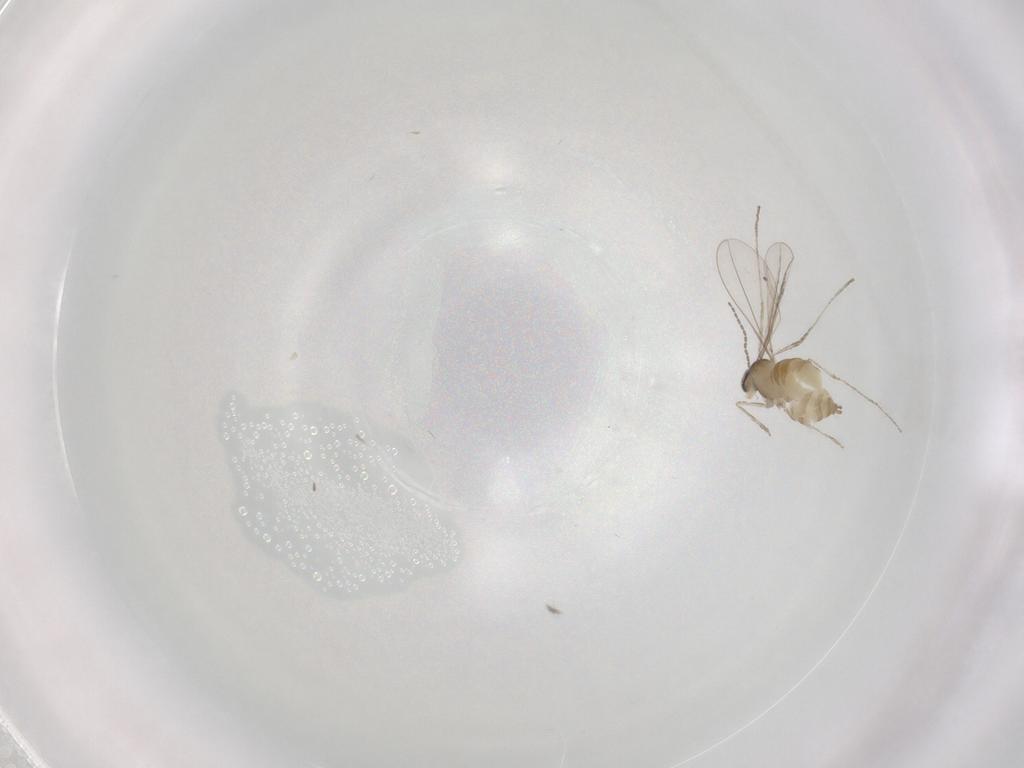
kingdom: Animalia
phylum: Arthropoda
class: Insecta
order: Diptera
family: Cecidomyiidae
